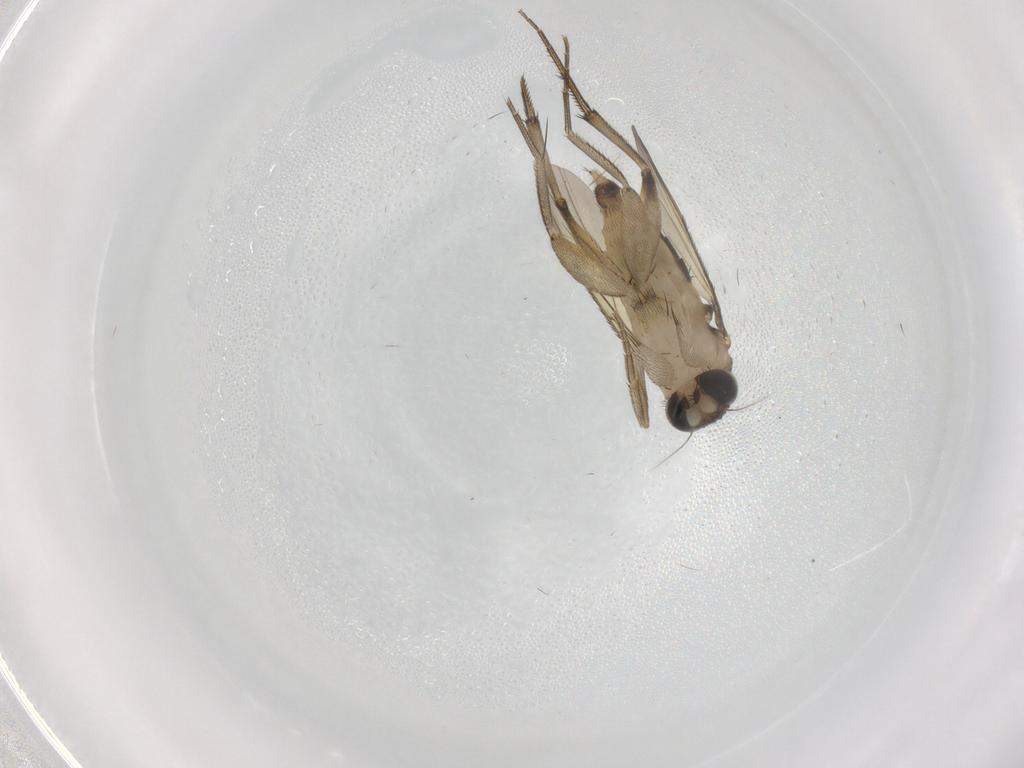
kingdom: Animalia
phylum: Arthropoda
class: Insecta
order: Diptera
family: Phoridae
